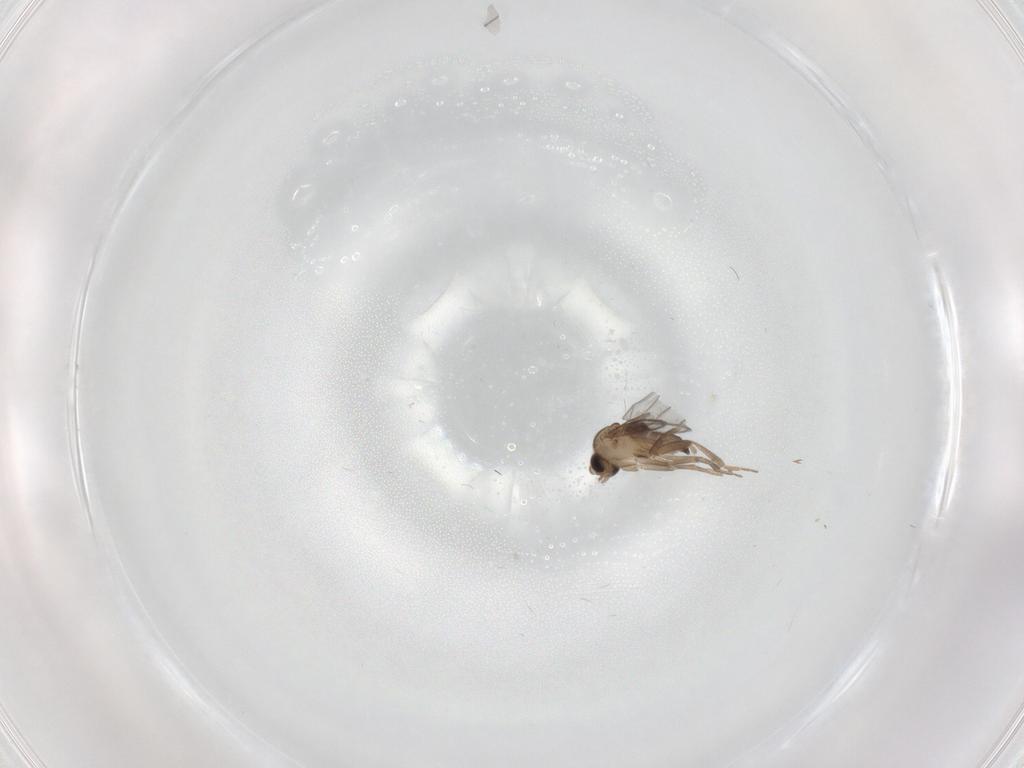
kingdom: Animalia
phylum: Arthropoda
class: Insecta
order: Diptera
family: Chironomidae
